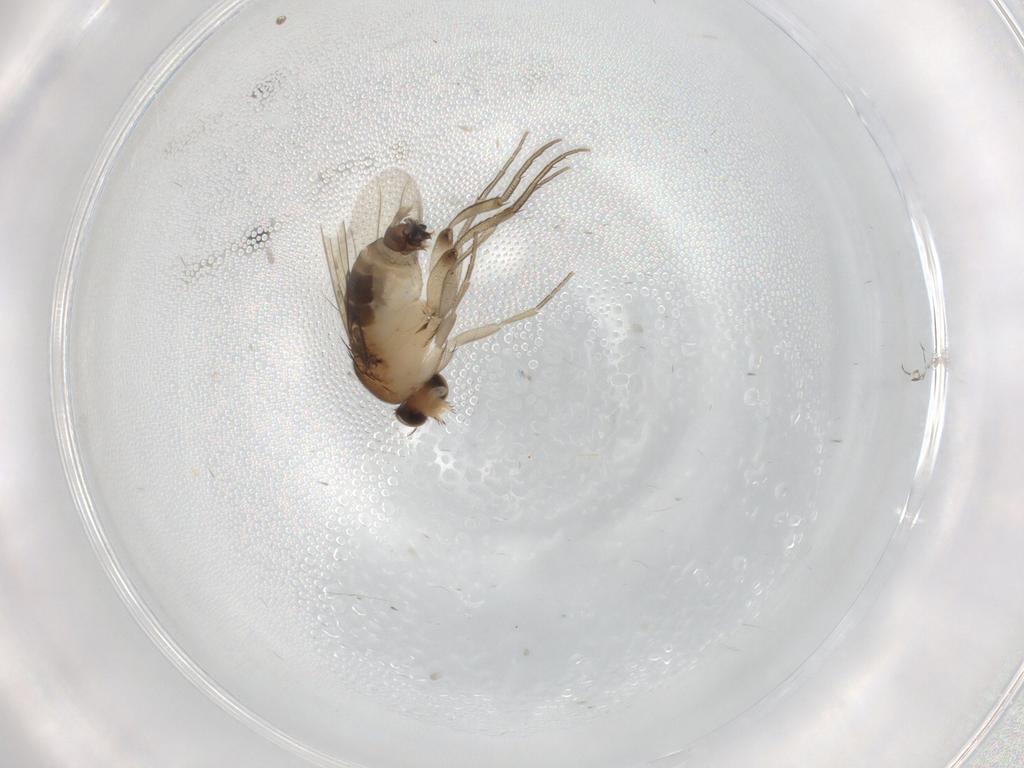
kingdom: Animalia
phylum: Arthropoda
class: Insecta
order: Diptera
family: Phoridae
